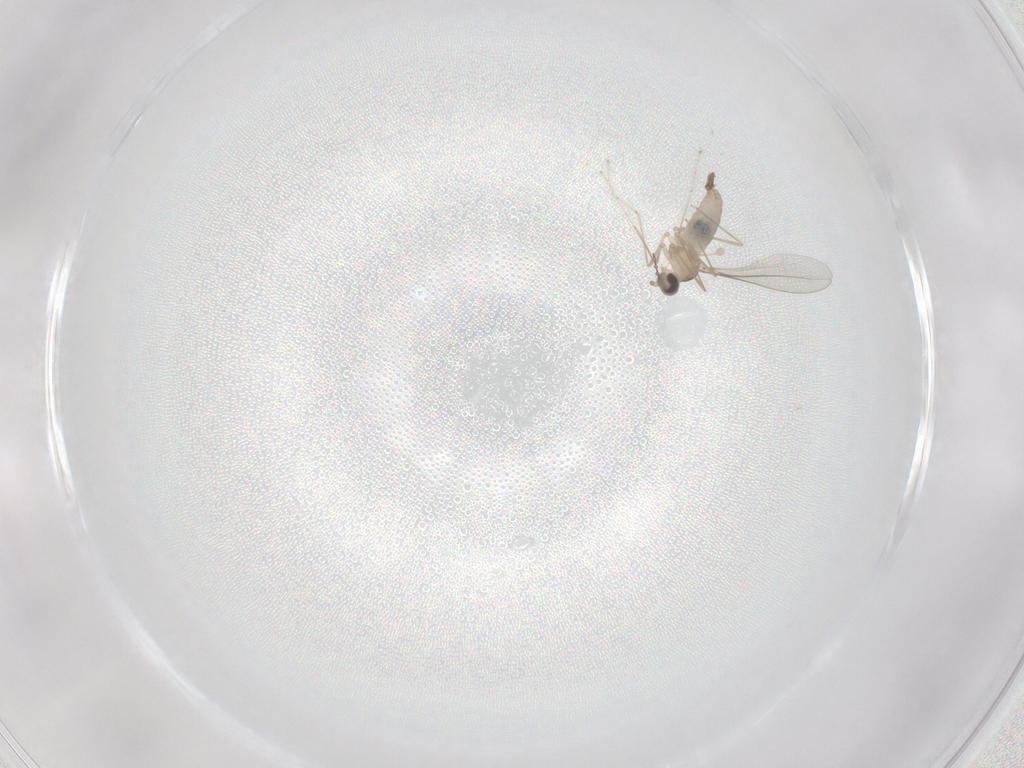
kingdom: Animalia
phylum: Arthropoda
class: Insecta
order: Diptera
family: Cecidomyiidae
